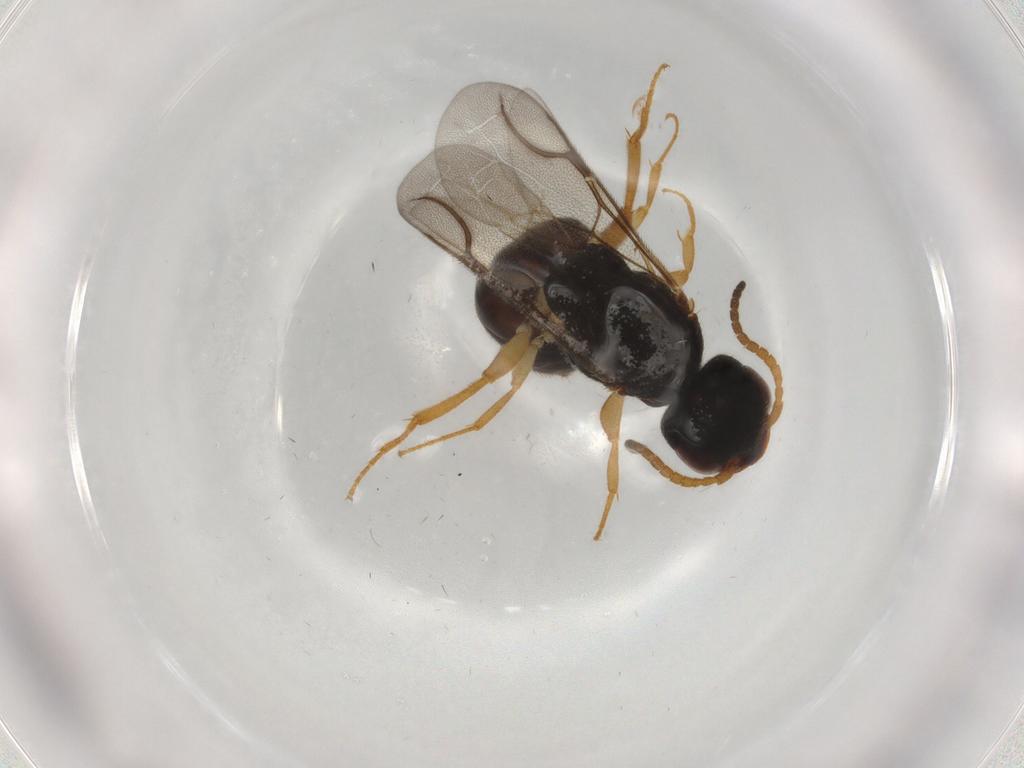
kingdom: Animalia
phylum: Arthropoda
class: Insecta
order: Hymenoptera
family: Bethylidae
